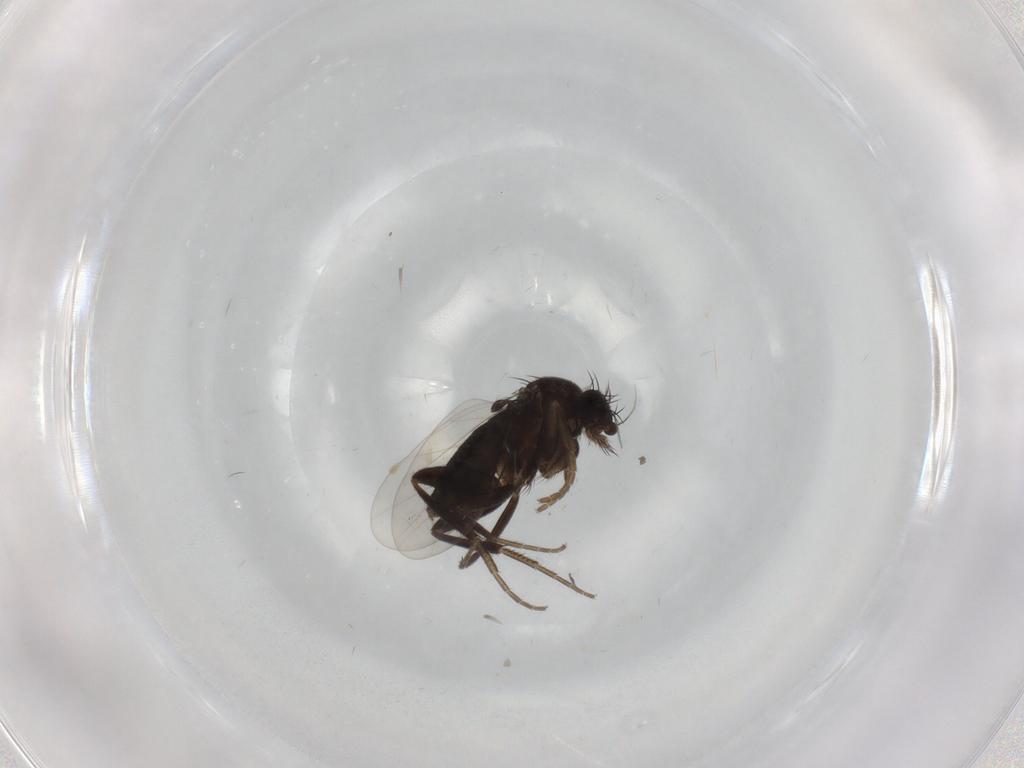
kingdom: Animalia
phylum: Arthropoda
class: Insecta
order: Diptera
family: Phoridae
